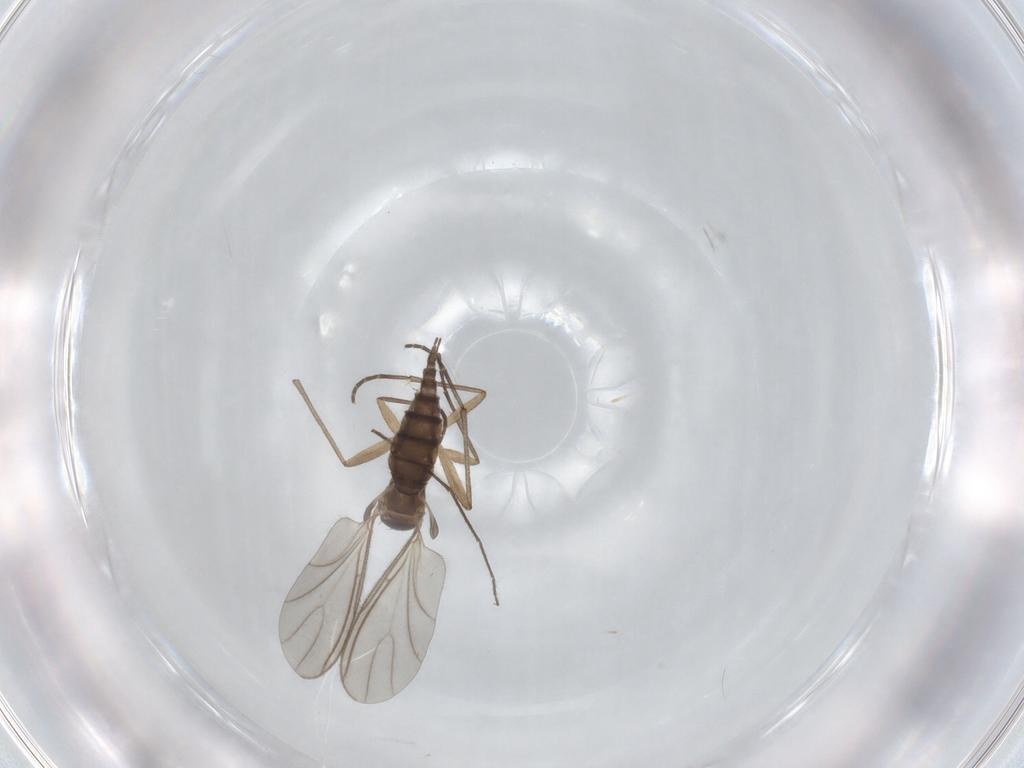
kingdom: Animalia
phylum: Arthropoda
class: Insecta
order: Diptera
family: Sciaridae
